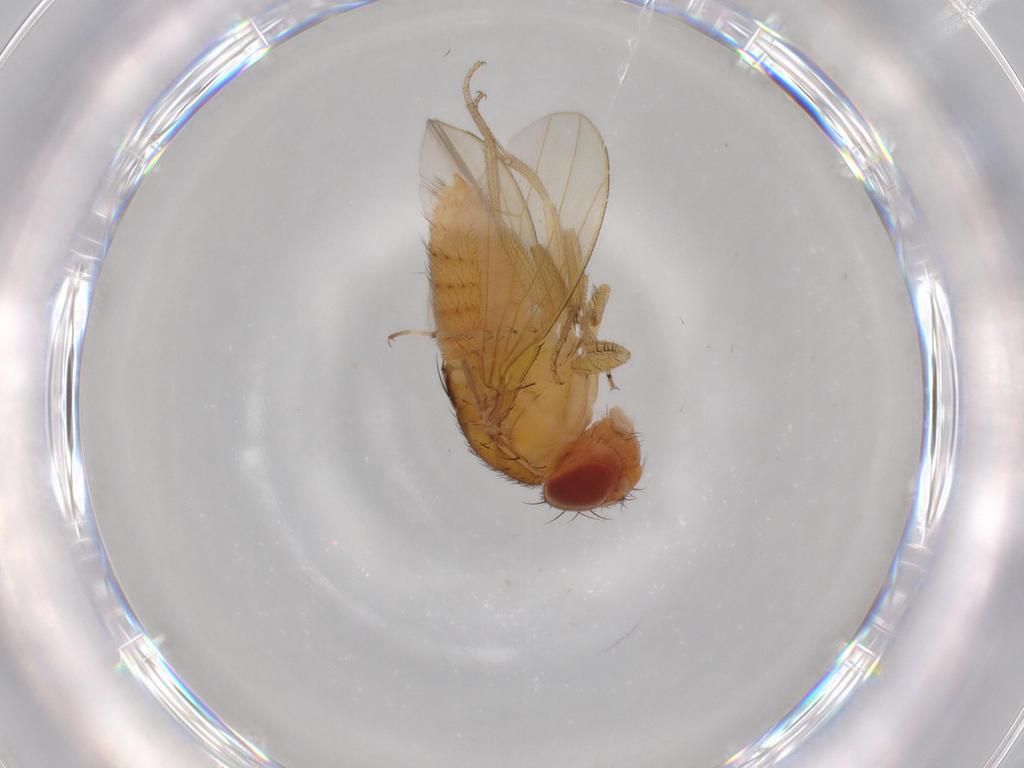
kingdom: Animalia
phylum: Arthropoda
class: Insecta
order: Diptera
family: Drosophilidae
